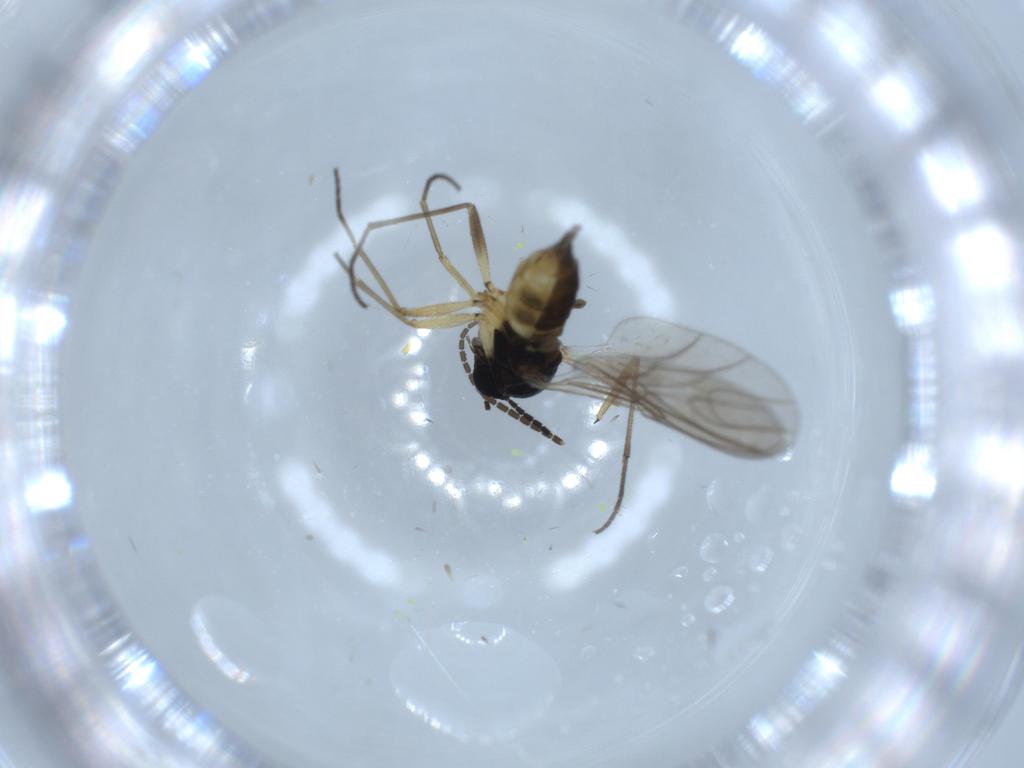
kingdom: Animalia
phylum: Arthropoda
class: Insecta
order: Diptera
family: Sciaridae
